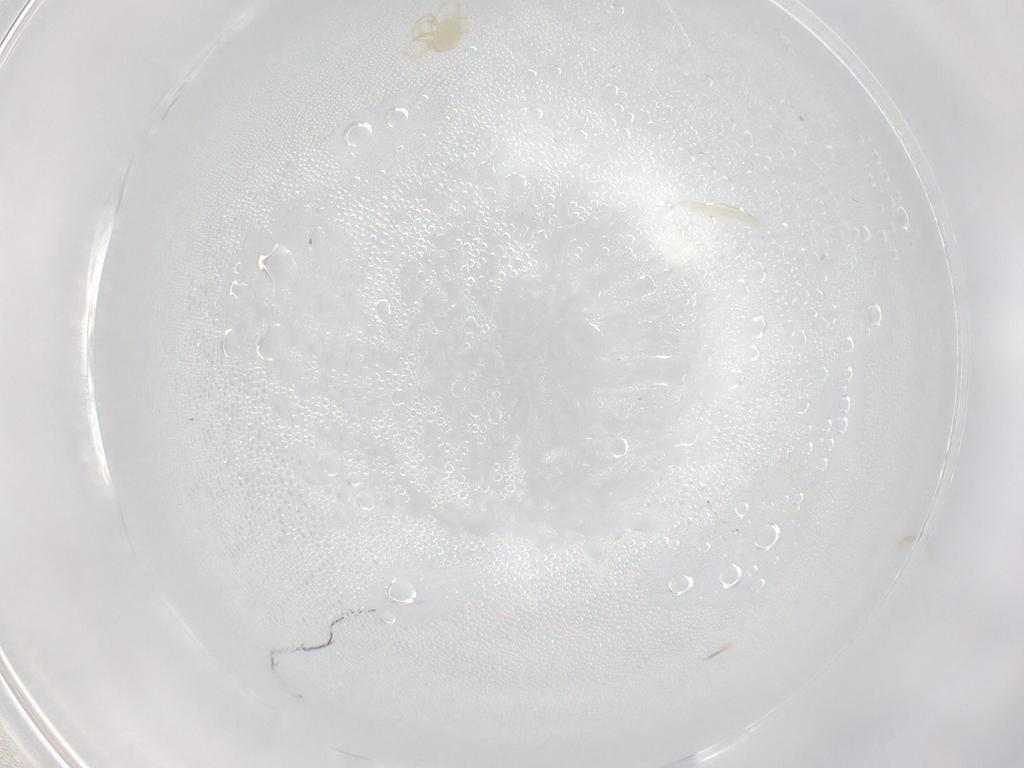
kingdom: Animalia
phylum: Arthropoda
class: Arachnida
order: Trombidiformes
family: Erythraeidae
